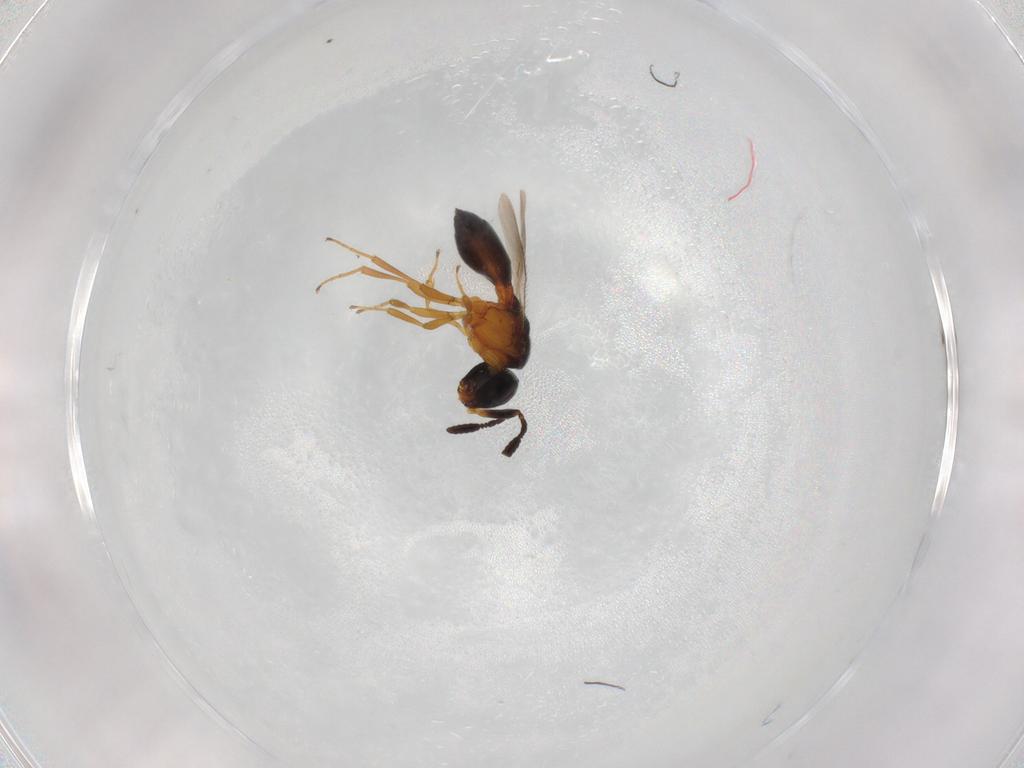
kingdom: Animalia
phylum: Arthropoda
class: Insecta
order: Hymenoptera
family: Scelionidae
